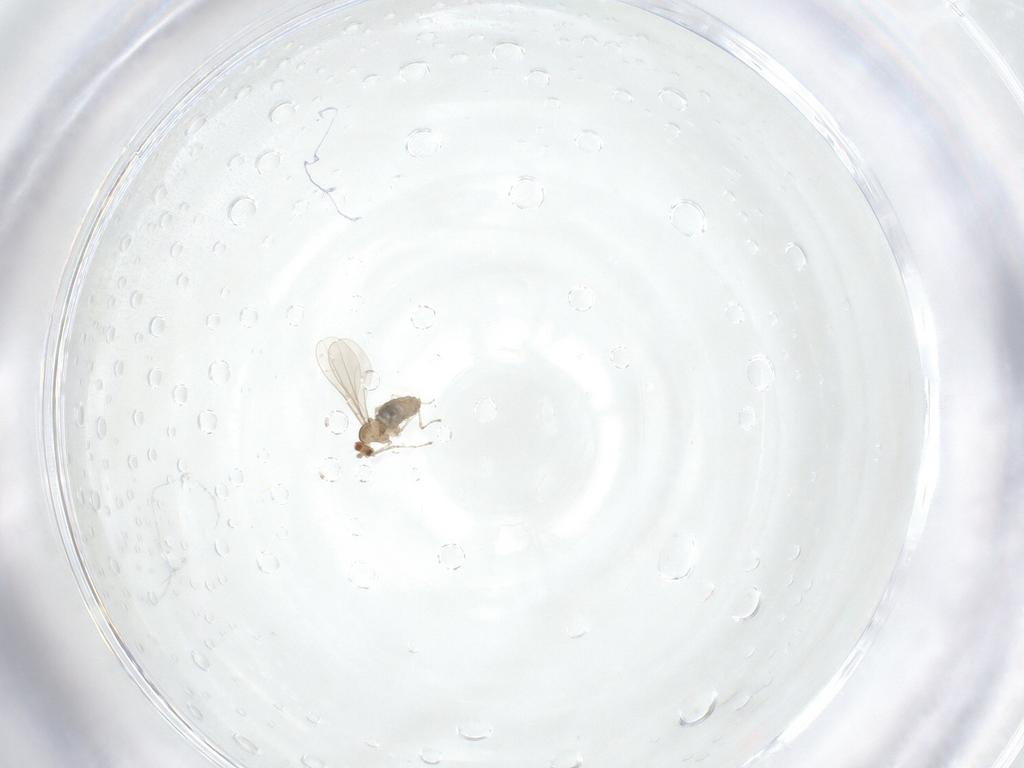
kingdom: Animalia
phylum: Arthropoda
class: Insecta
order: Diptera
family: Cecidomyiidae
